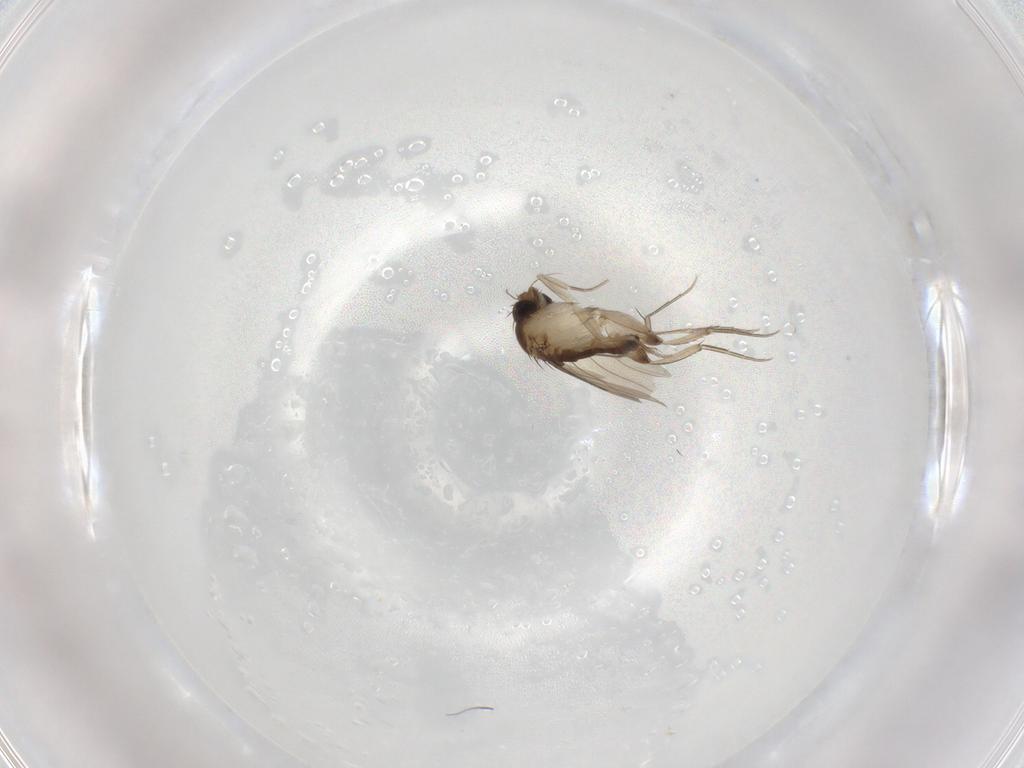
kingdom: Animalia
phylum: Arthropoda
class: Insecta
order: Diptera
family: Phoridae
